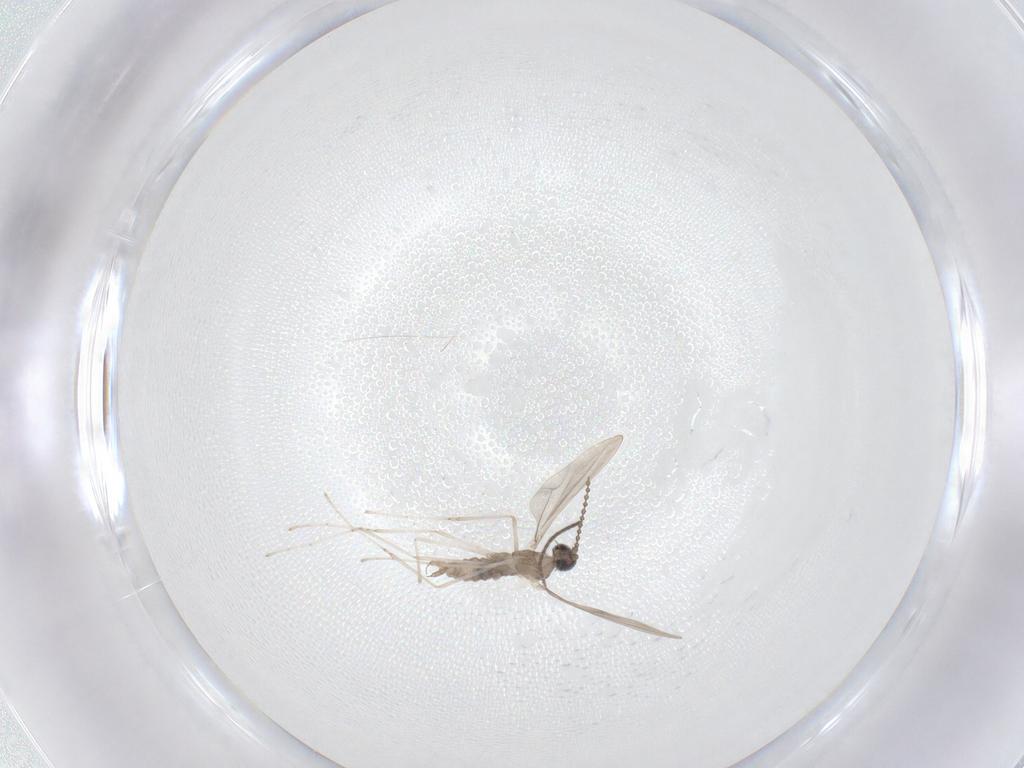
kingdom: Animalia
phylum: Arthropoda
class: Insecta
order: Diptera
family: Cecidomyiidae
